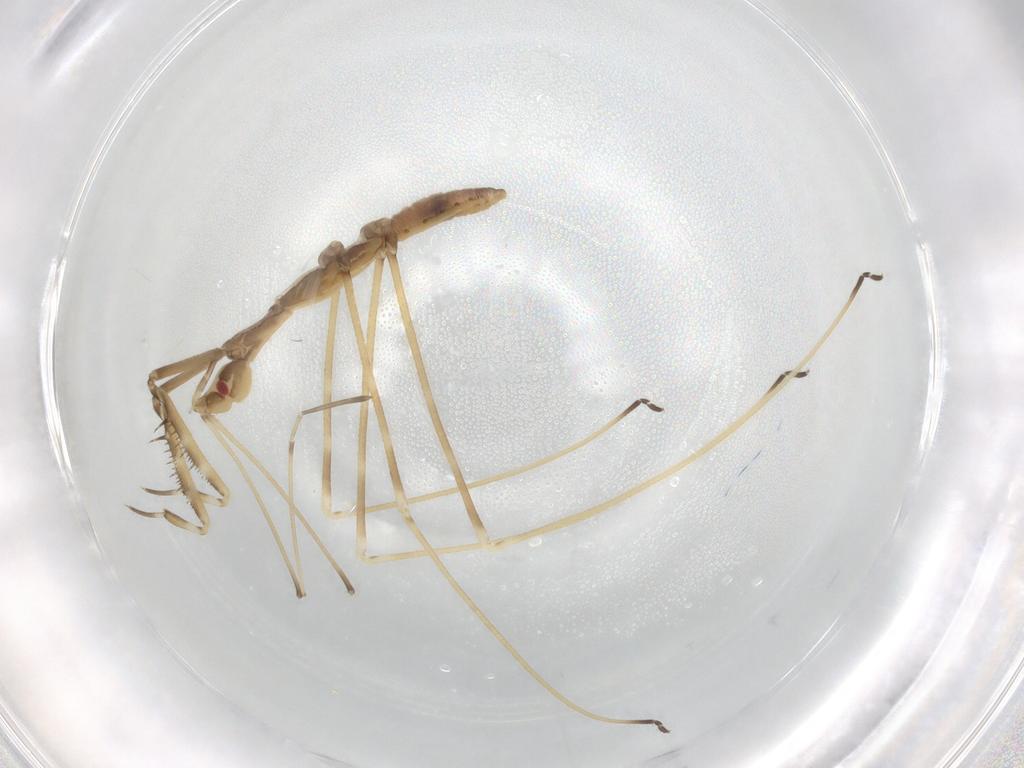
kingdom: Animalia
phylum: Arthropoda
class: Insecta
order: Hemiptera
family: Reduviidae
